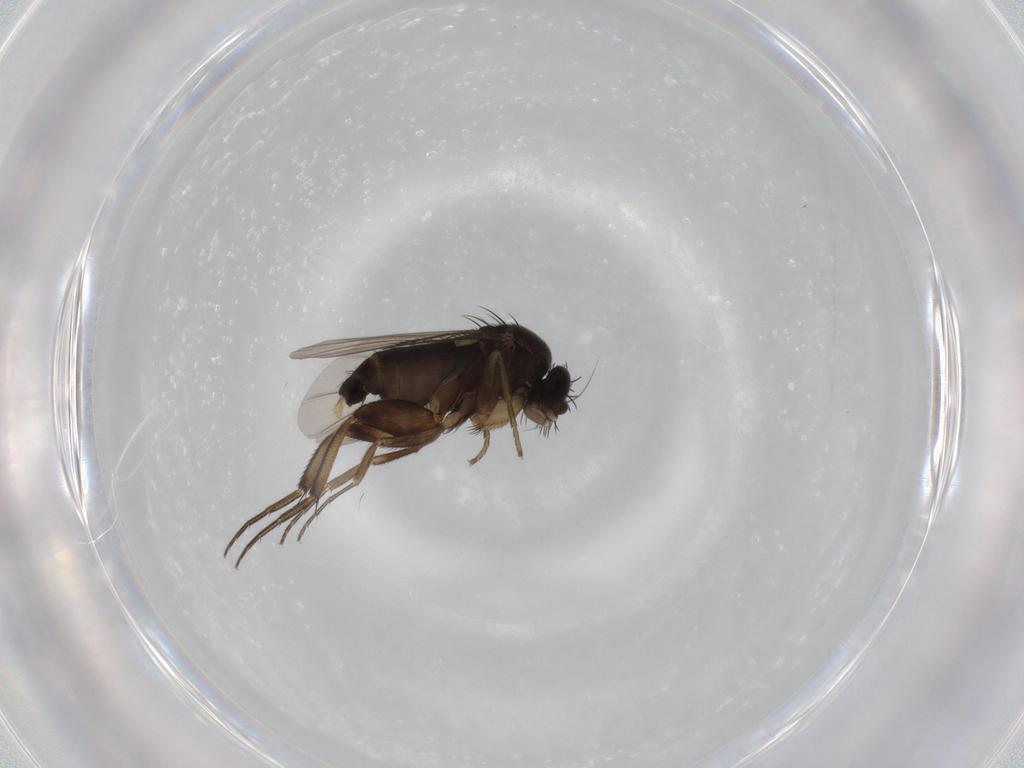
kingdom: Animalia
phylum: Arthropoda
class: Insecta
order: Diptera
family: Phoridae
